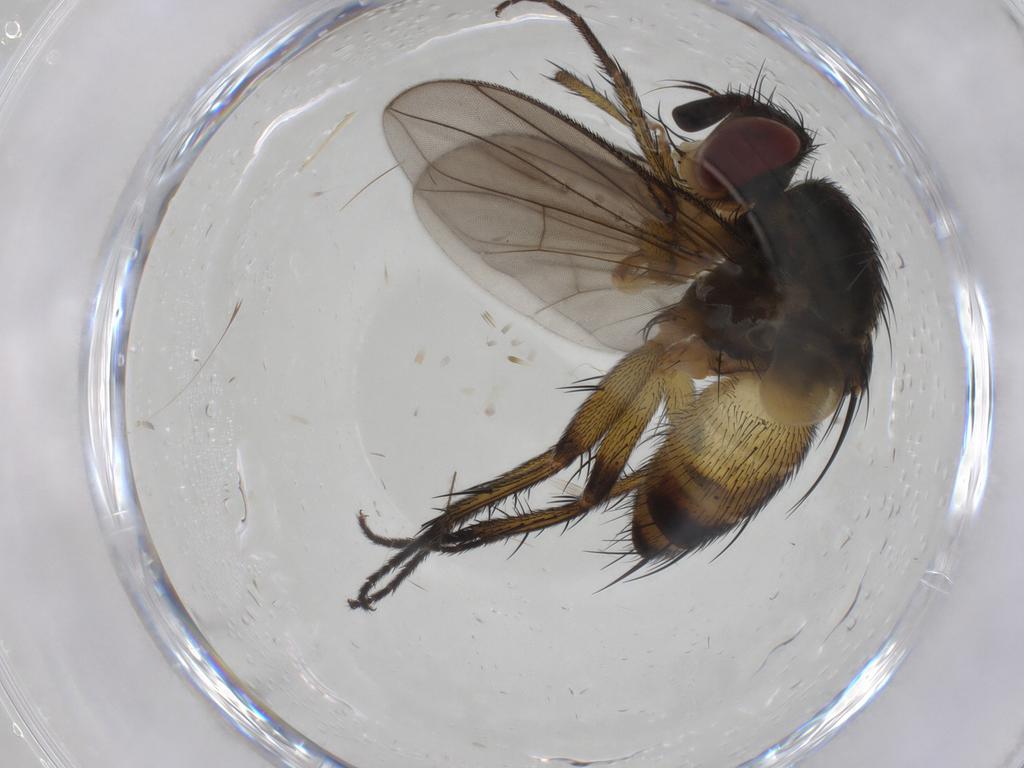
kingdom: Animalia
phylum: Arthropoda
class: Insecta
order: Diptera
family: Tachinidae
